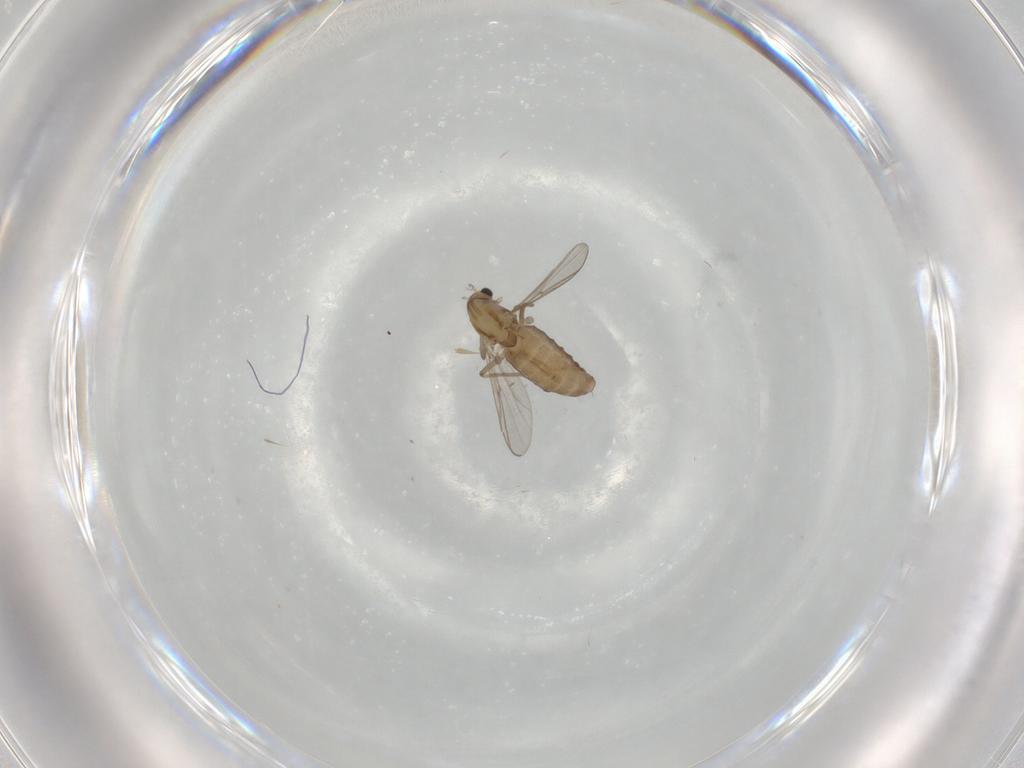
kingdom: Animalia
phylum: Arthropoda
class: Insecta
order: Diptera
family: Chironomidae
